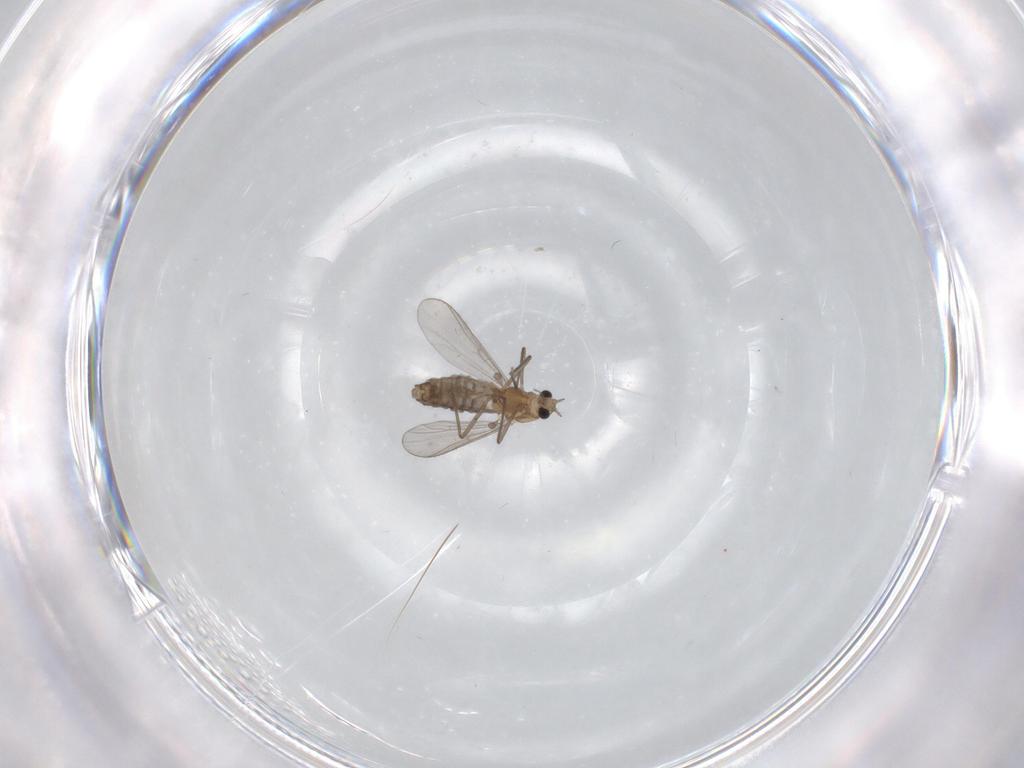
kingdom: Animalia
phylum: Arthropoda
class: Insecta
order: Diptera
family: Chironomidae
